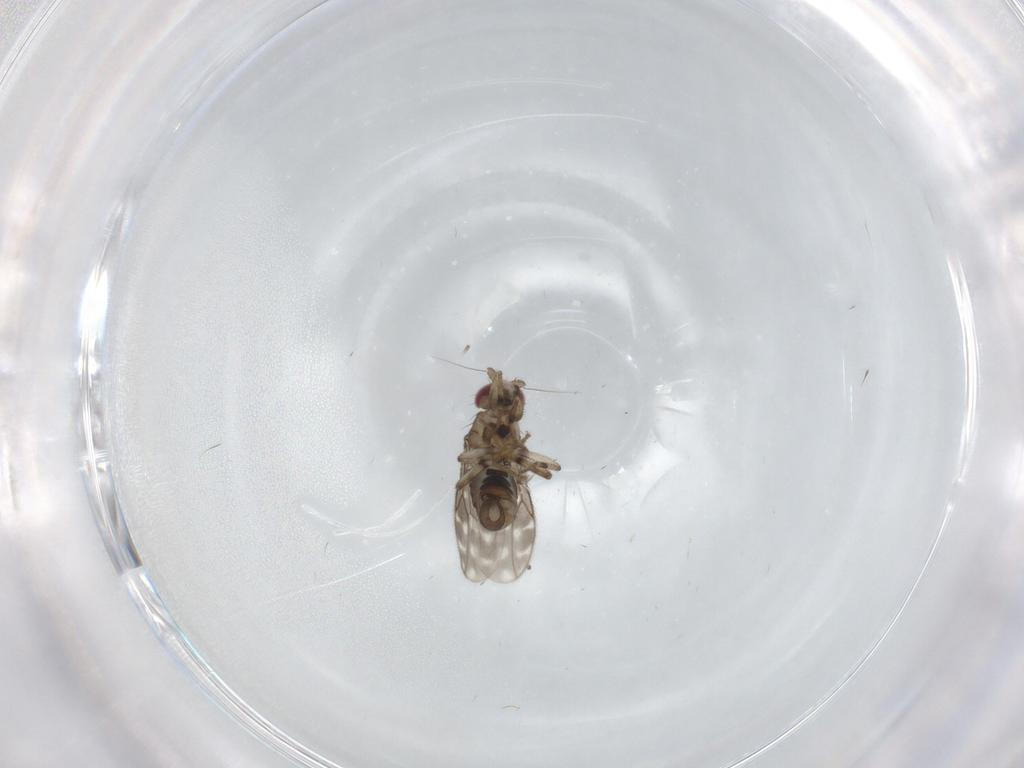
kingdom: Animalia
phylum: Arthropoda
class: Insecta
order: Diptera
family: Sphaeroceridae
